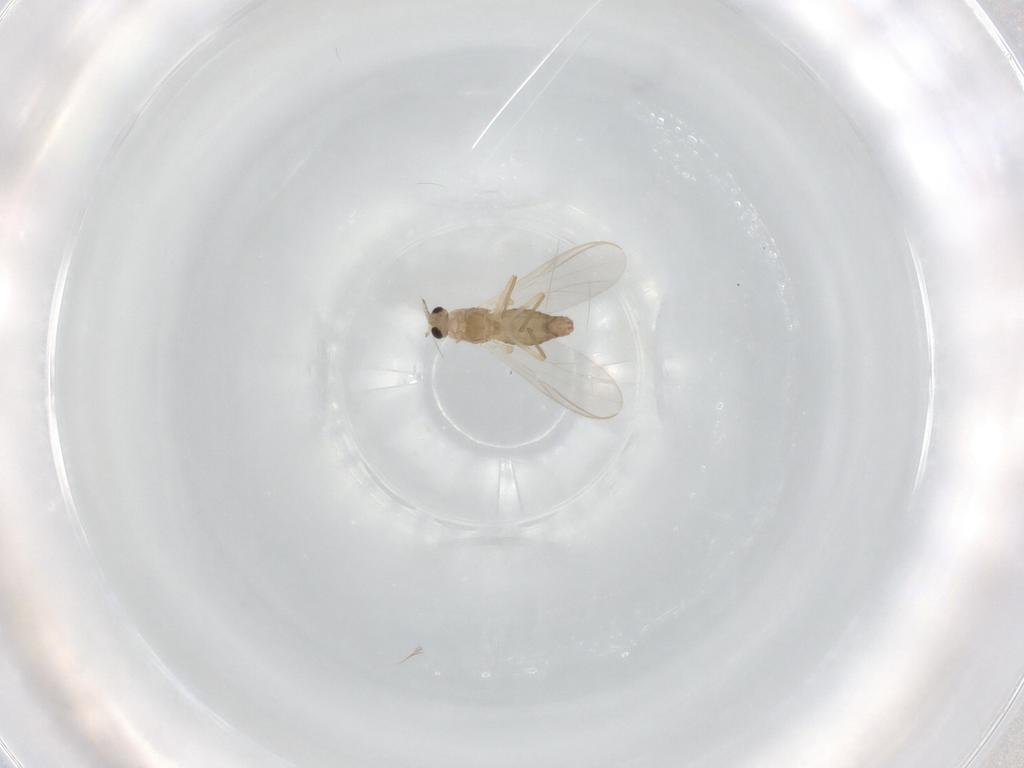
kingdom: Animalia
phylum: Arthropoda
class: Insecta
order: Diptera
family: Chironomidae
